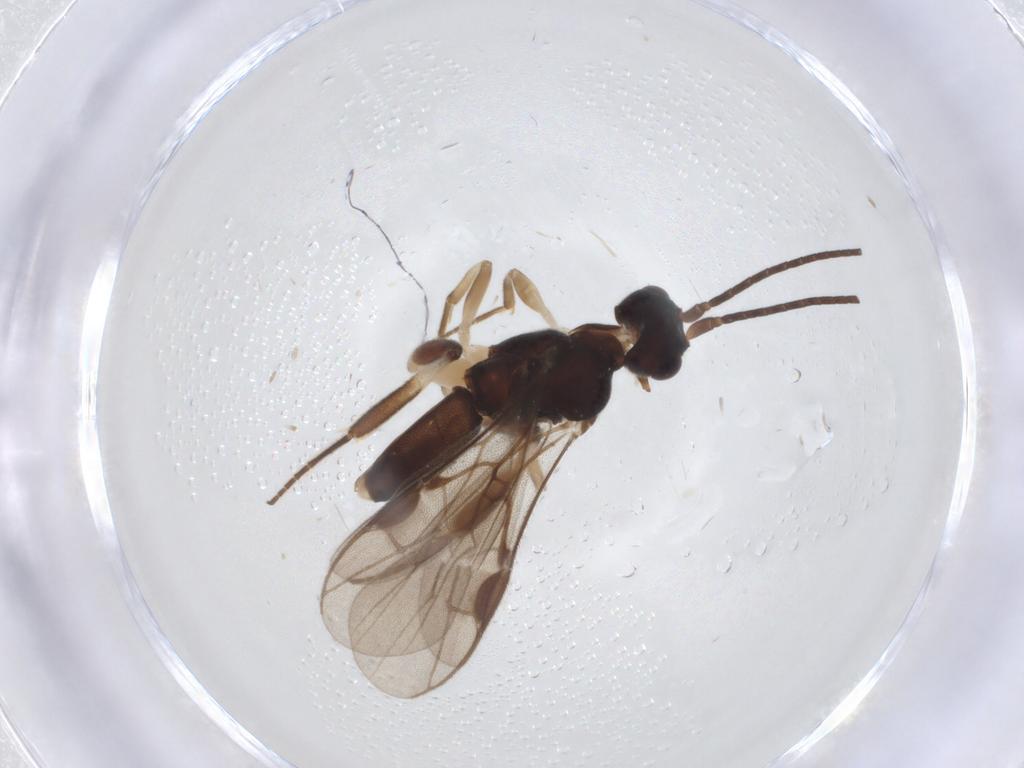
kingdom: Animalia
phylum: Arthropoda
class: Insecta
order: Hymenoptera
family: Braconidae
